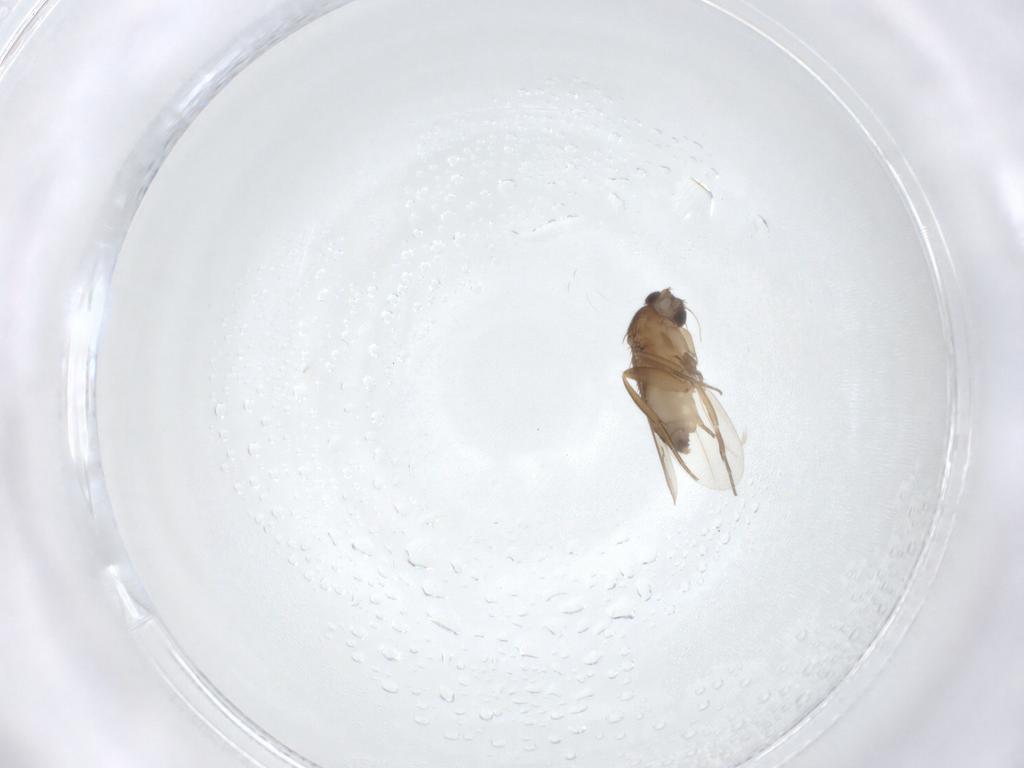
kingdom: Animalia
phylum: Arthropoda
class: Insecta
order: Diptera
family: Phoridae
